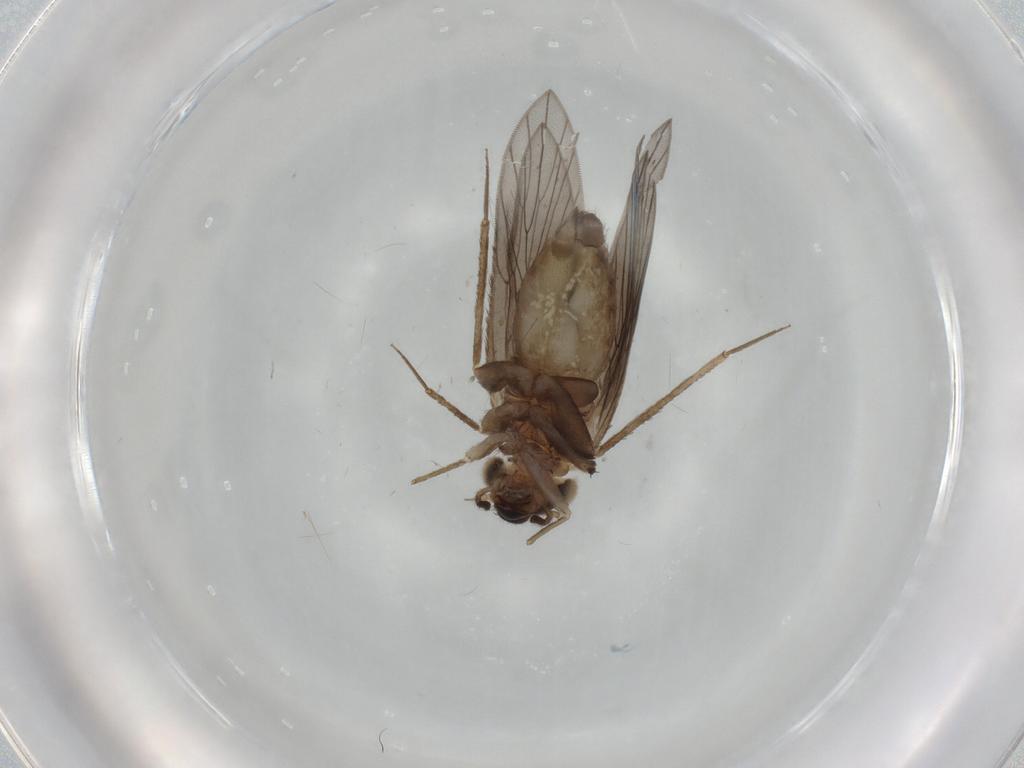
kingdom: Animalia
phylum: Arthropoda
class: Insecta
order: Psocodea
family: Lepidopsocidae
